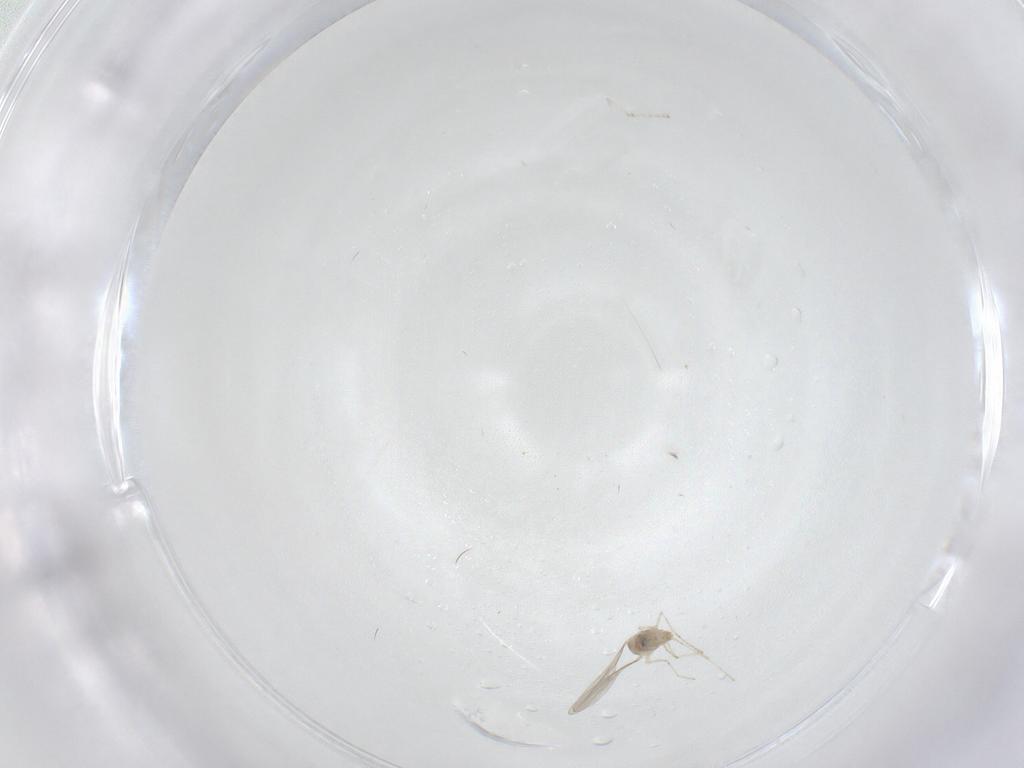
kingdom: Animalia
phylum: Arthropoda
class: Insecta
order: Diptera
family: Cecidomyiidae
